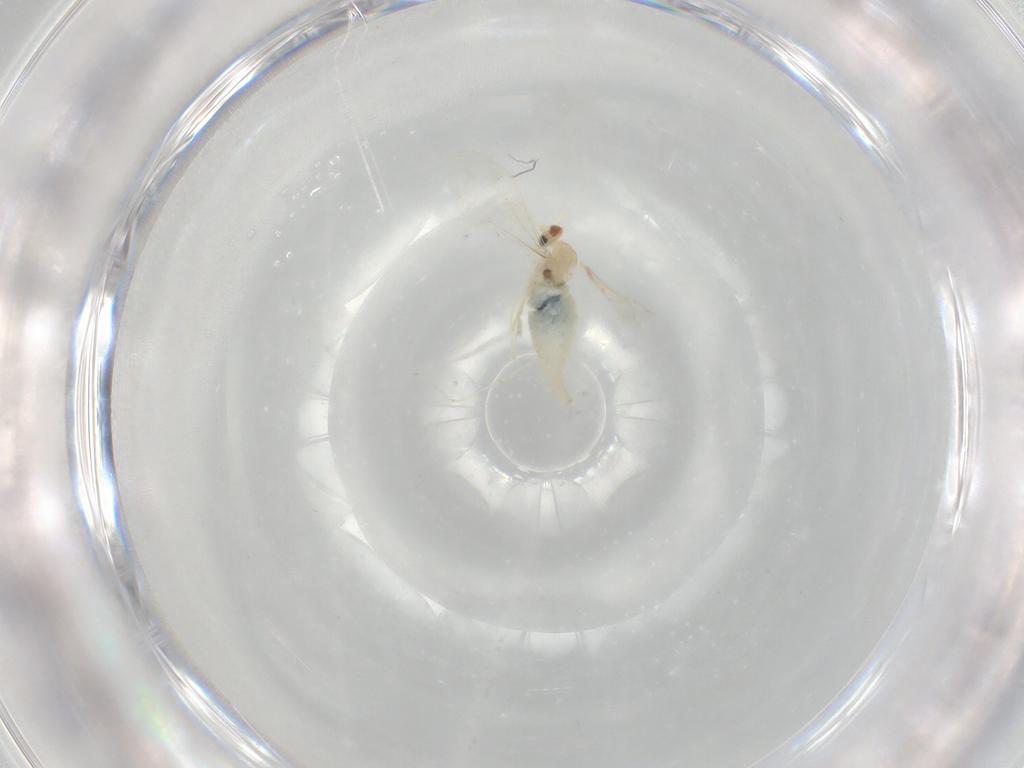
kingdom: Animalia
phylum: Arthropoda
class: Insecta
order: Diptera
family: Cecidomyiidae
